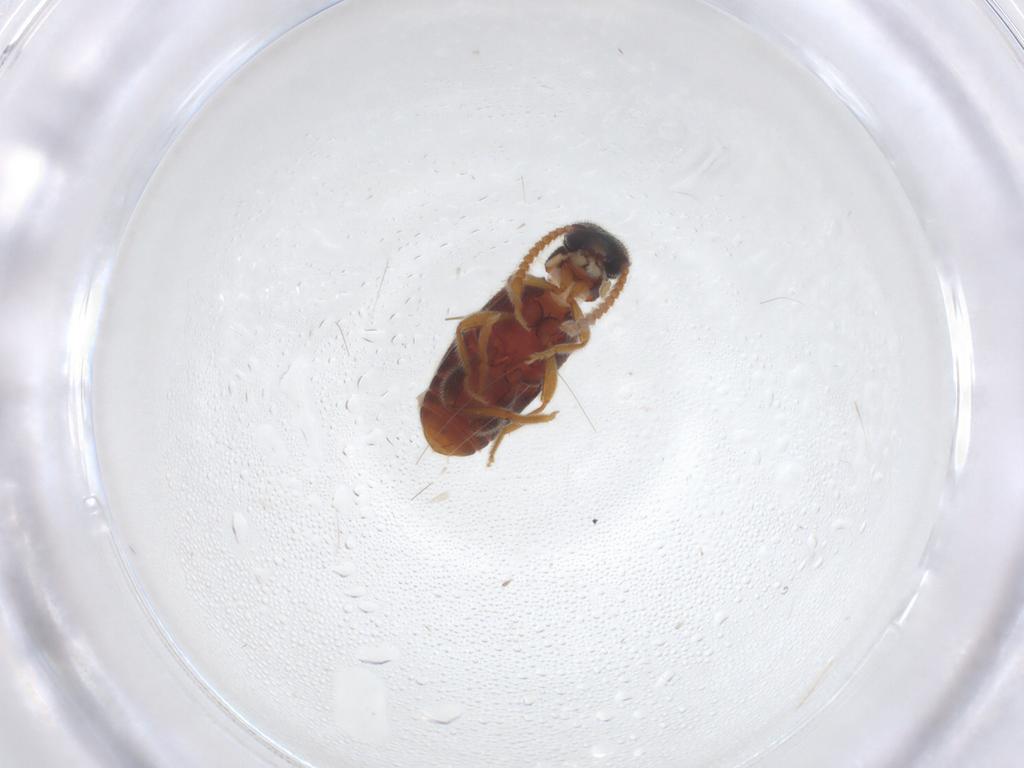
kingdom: Animalia
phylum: Arthropoda
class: Insecta
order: Coleoptera
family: Aderidae
